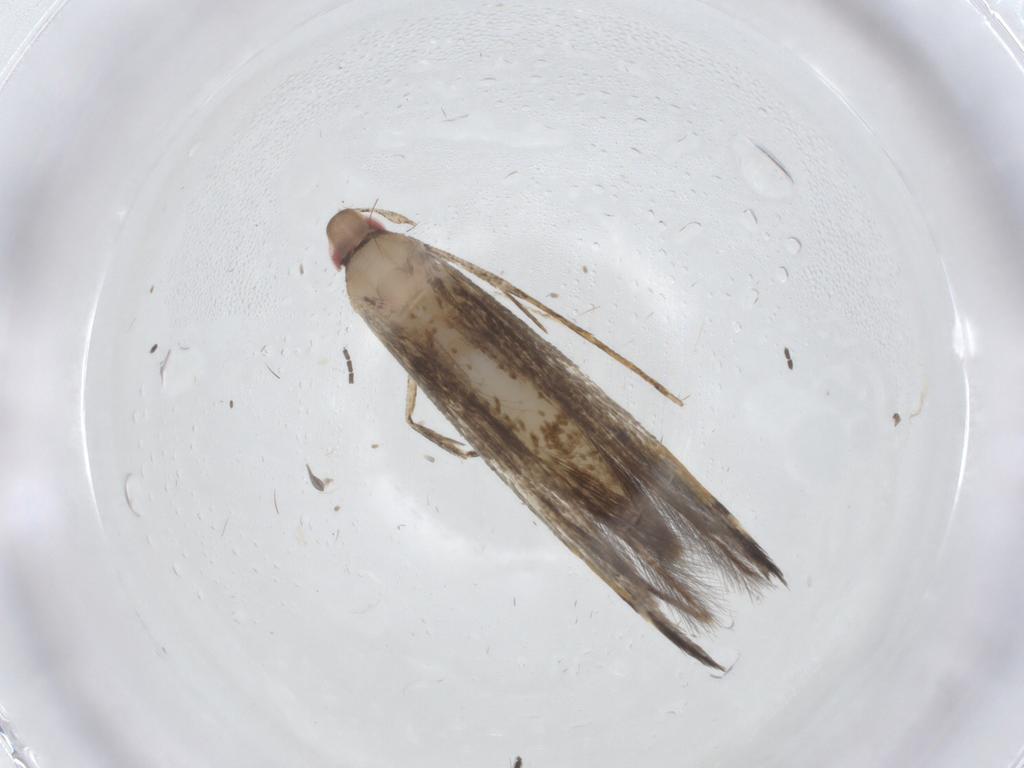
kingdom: Animalia
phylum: Arthropoda
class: Insecta
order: Lepidoptera
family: Cosmopterigidae
